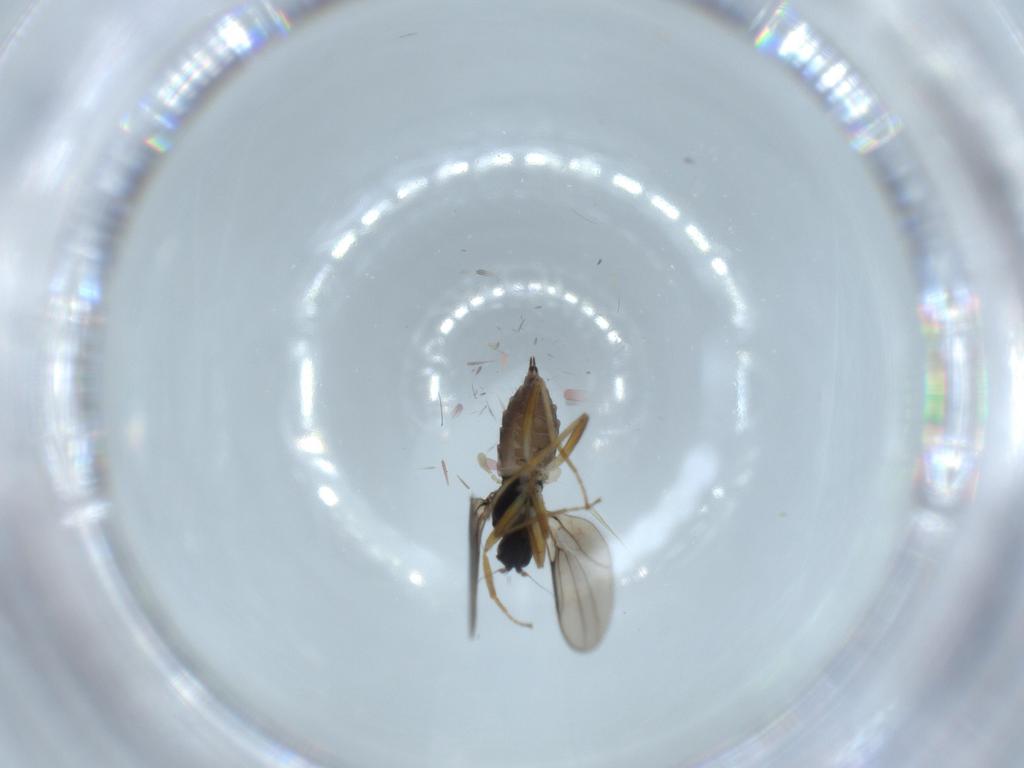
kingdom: Animalia
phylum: Arthropoda
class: Insecta
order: Diptera
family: Hybotidae
